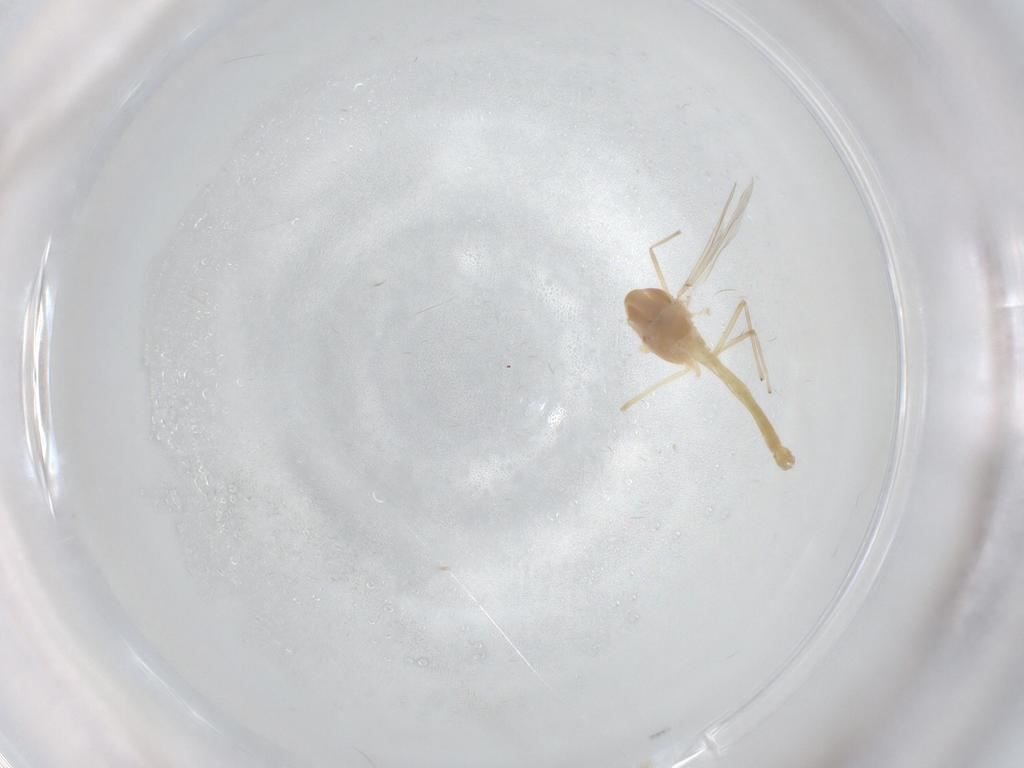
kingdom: Animalia
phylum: Arthropoda
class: Insecta
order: Diptera
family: Chironomidae
